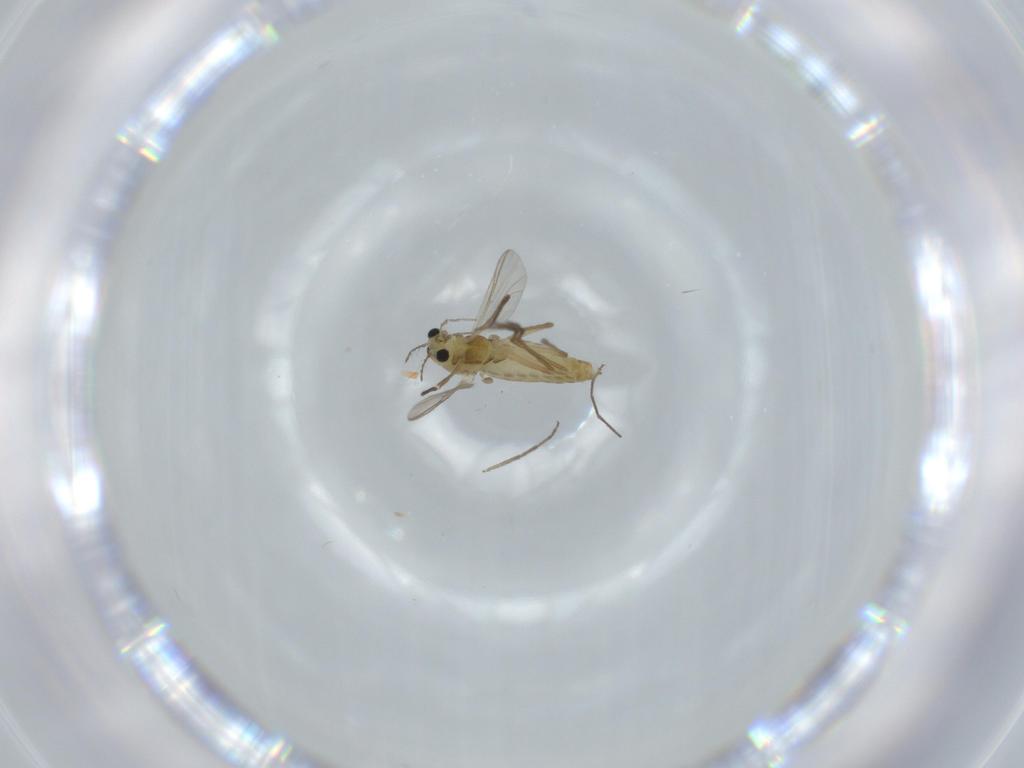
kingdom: Animalia
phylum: Arthropoda
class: Insecta
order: Diptera
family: Chironomidae
